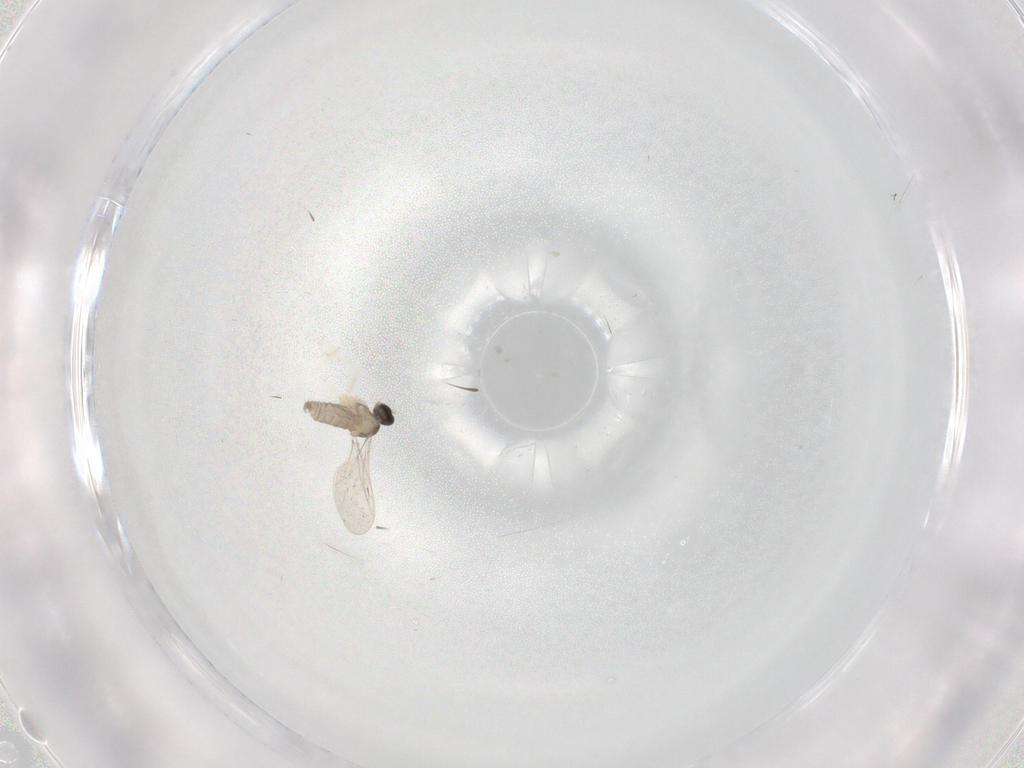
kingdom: Animalia
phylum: Arthropoda
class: Insecta
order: Diptera
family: Cecidomyiidae
